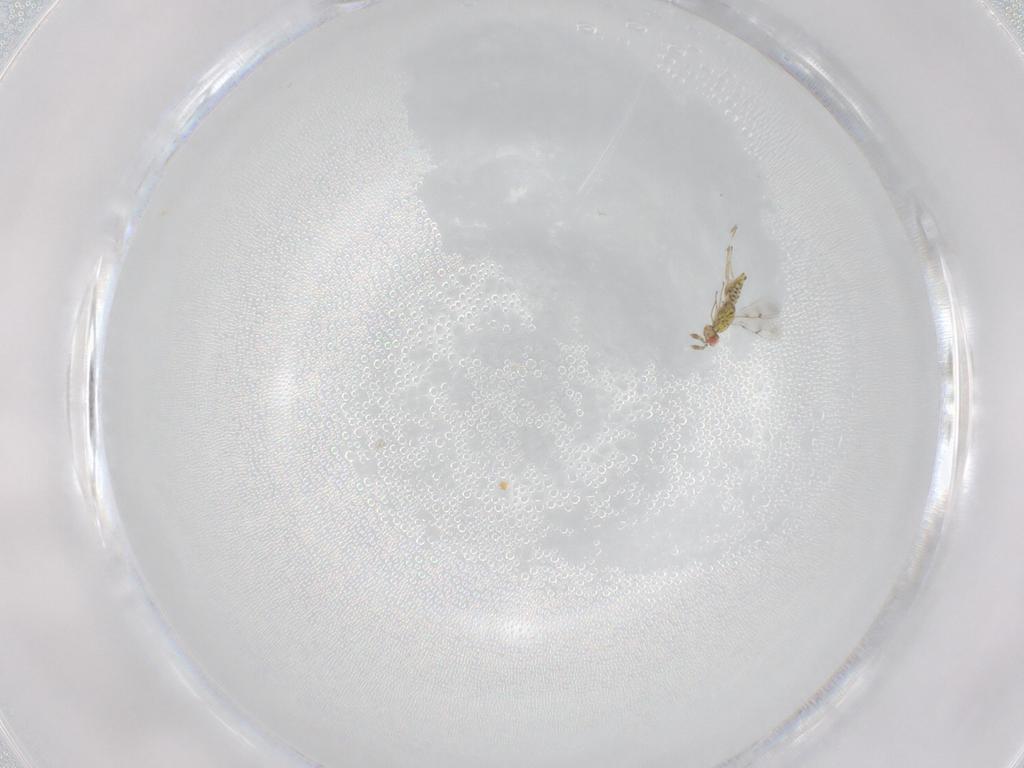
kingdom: Animalia
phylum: Arthropoda
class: Insecta
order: Hymenoptera
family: Eulophidae
